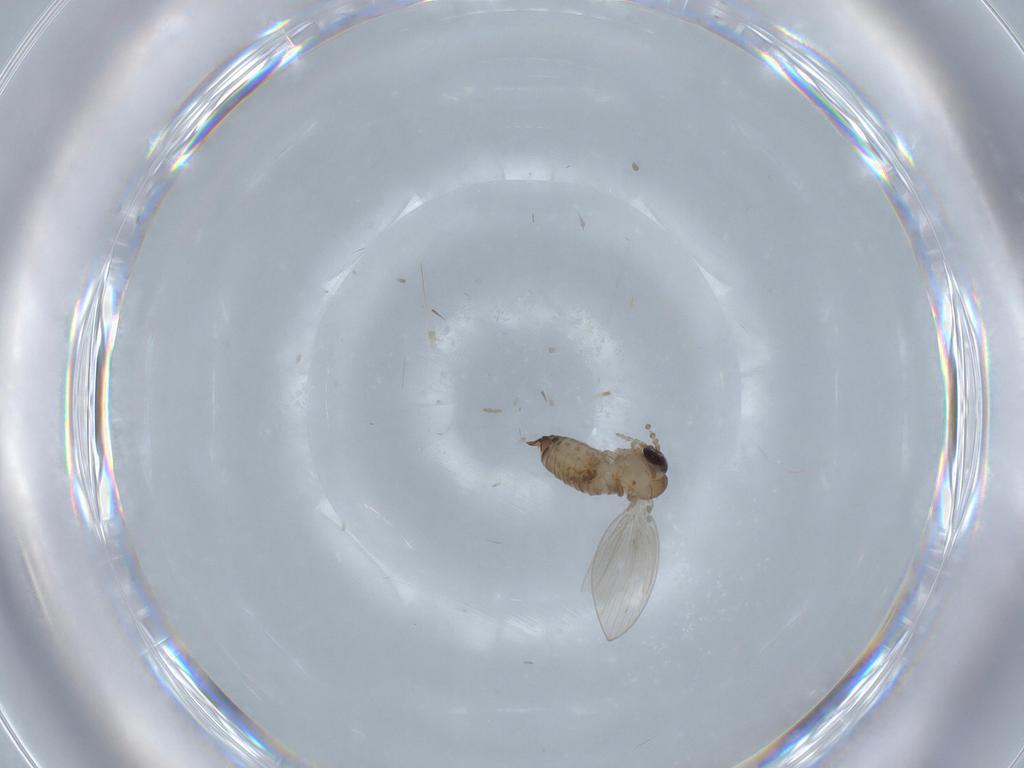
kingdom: Animalia
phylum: Arthropoda
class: Insecta
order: Diptera
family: Psychodidae
